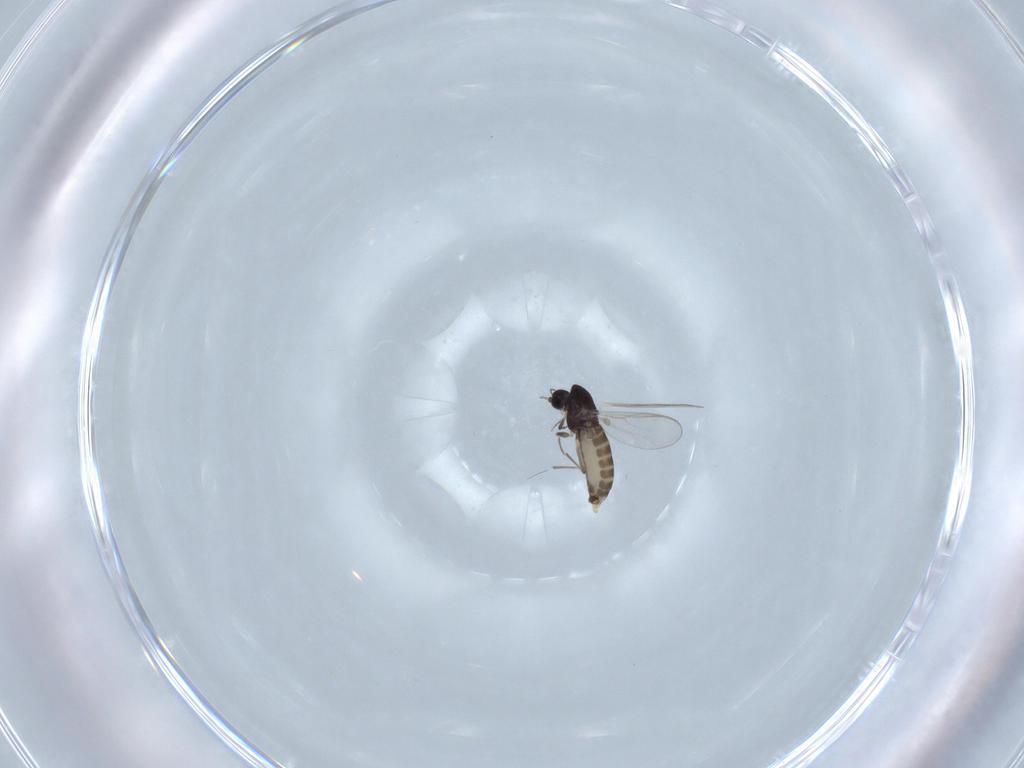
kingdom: Animalia
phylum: Arthropoda
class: Insecta
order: Diptera
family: Chironomidae
